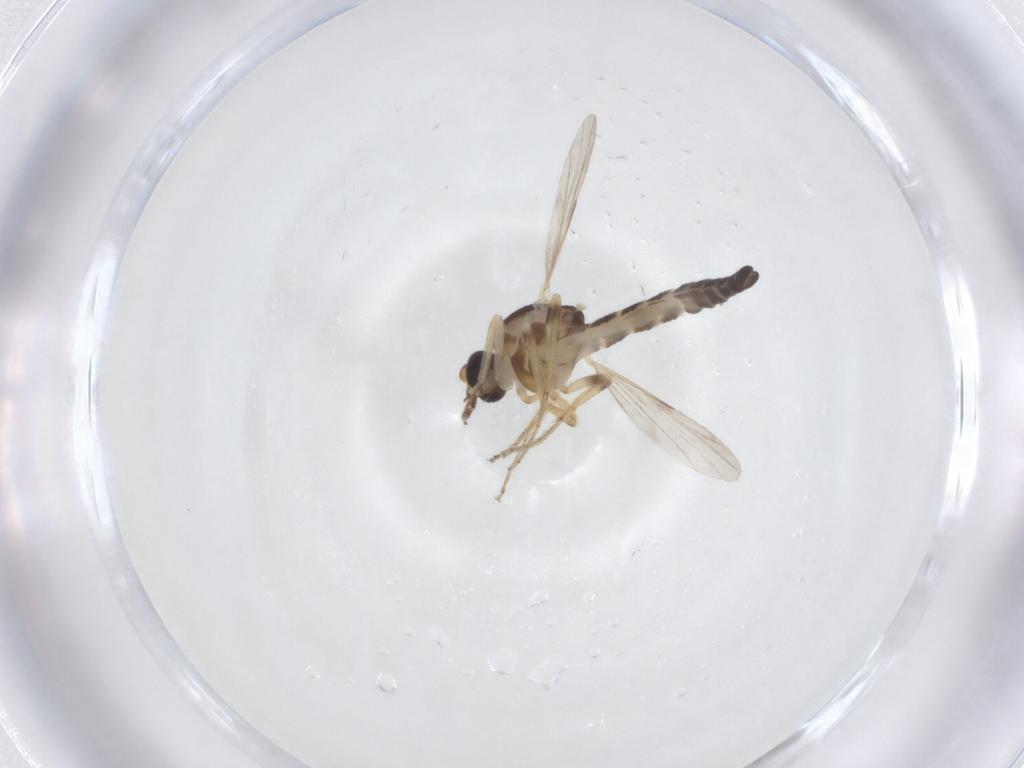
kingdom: Animalia
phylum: Arthropoda
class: Insecta
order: Diptera
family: Ceratopogonidae
